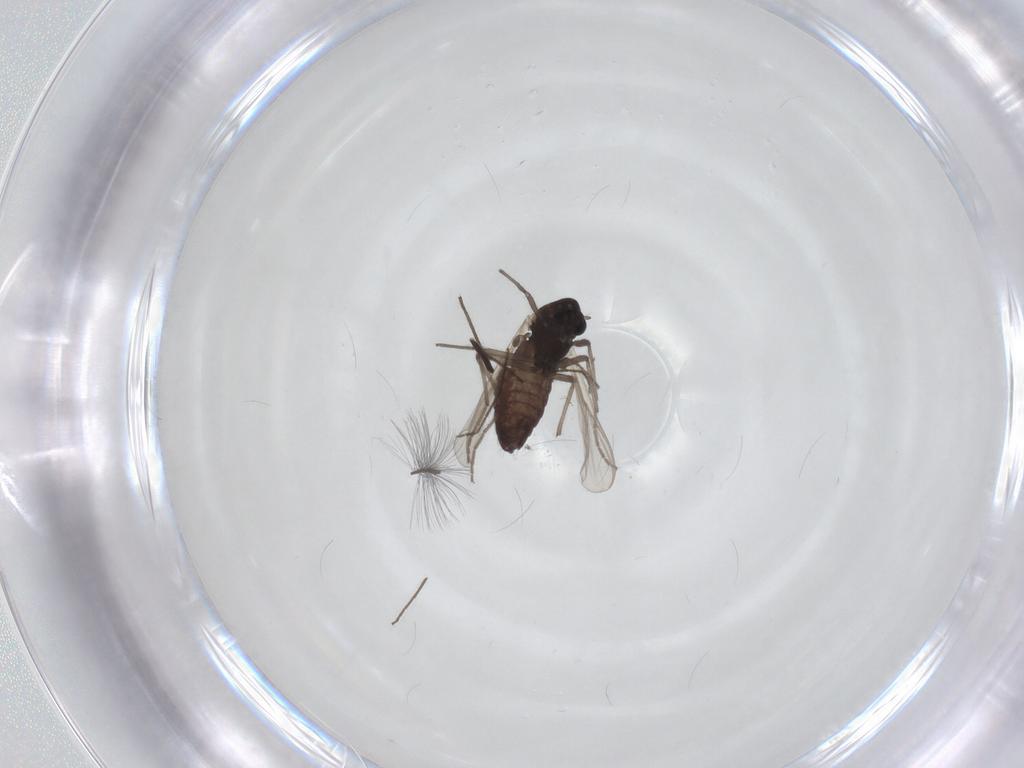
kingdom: Animalia
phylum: Arthropoda
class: Insecta
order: Diptera
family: Chironomidae
